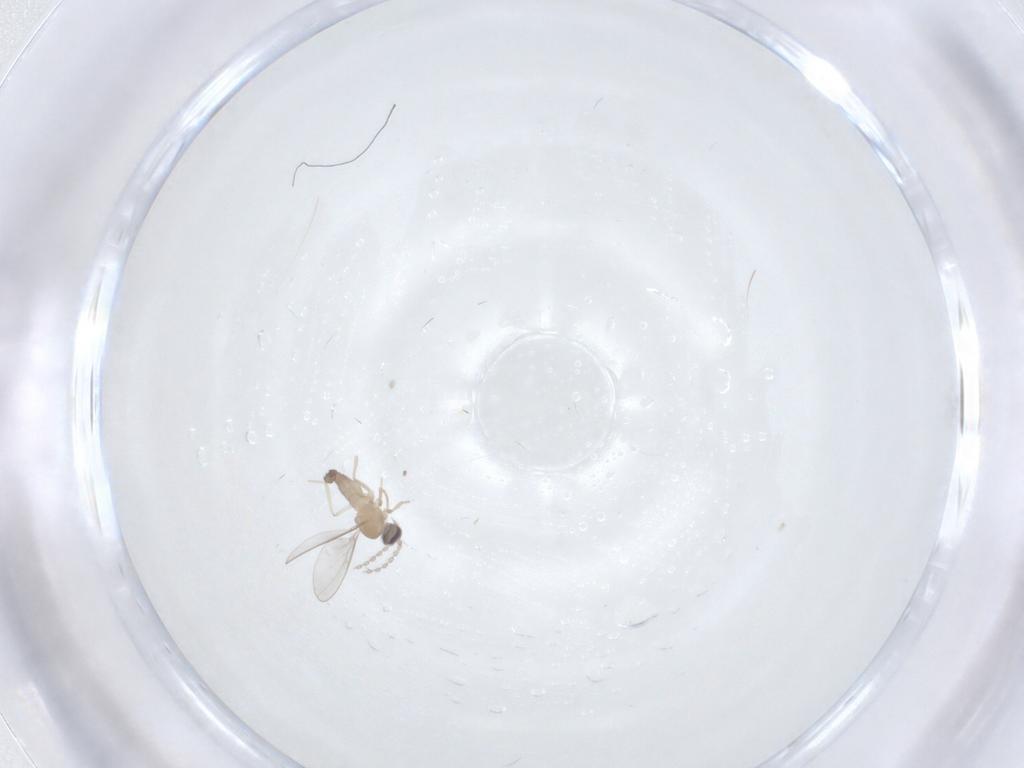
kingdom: Animalia
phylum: Arthropoda
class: Insecta
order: Diptera
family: Cecidomyiidae
